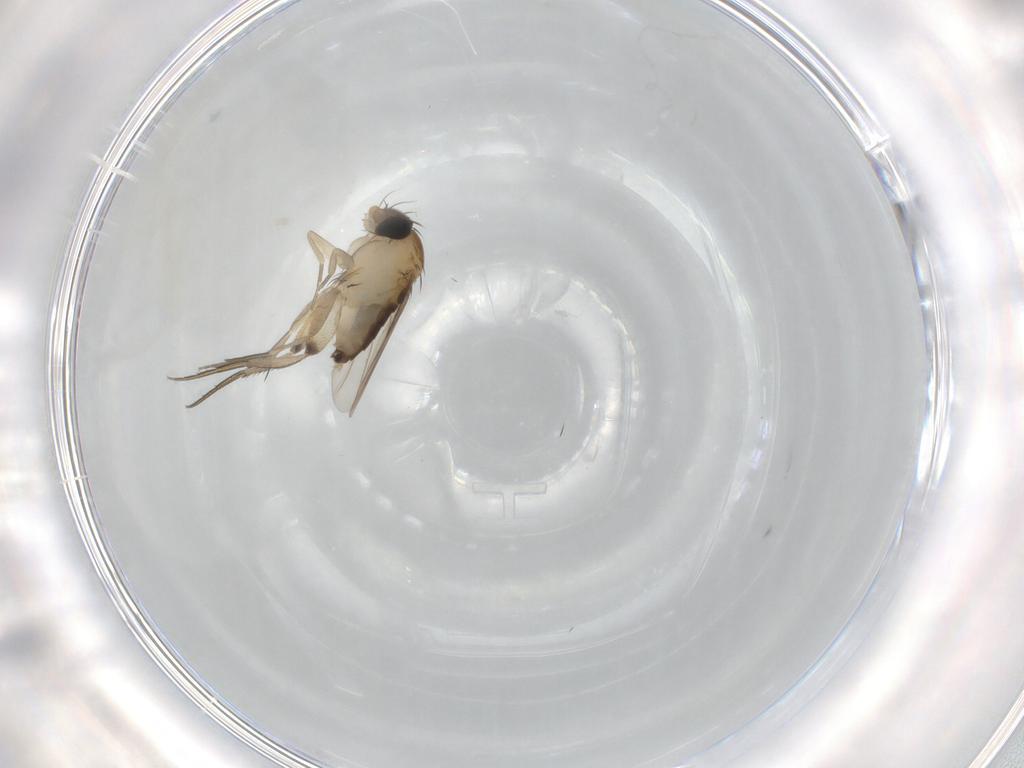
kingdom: Animalia
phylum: Arthropoda
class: Insecta
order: Diptera
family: Phoridae
